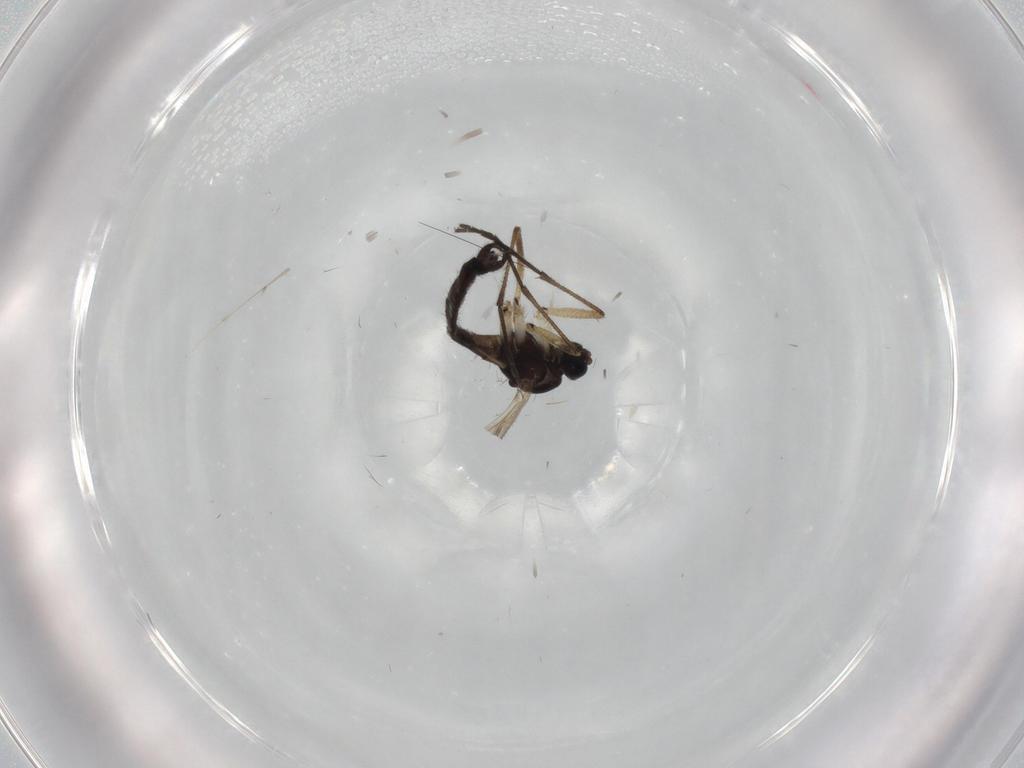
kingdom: Animalia
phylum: Arthropoda
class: Insecta
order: Diptera
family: Sciaridae
